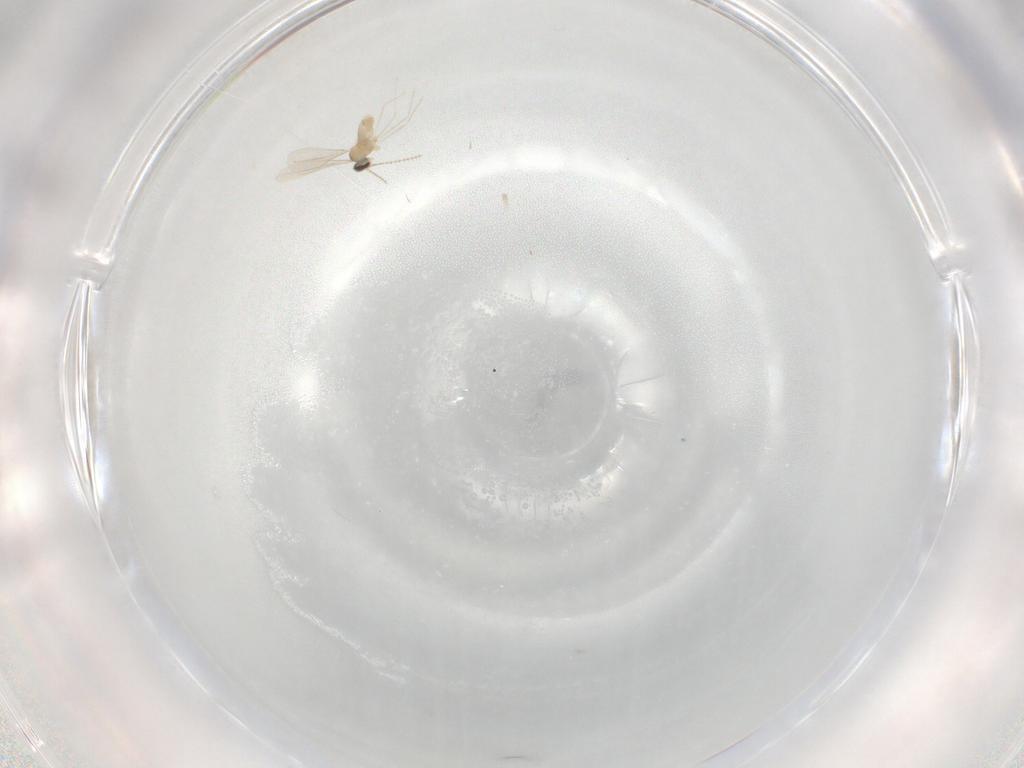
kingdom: Animalia
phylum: Arthropoda
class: Insecta
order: Diptera
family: Cecidomyiidae
